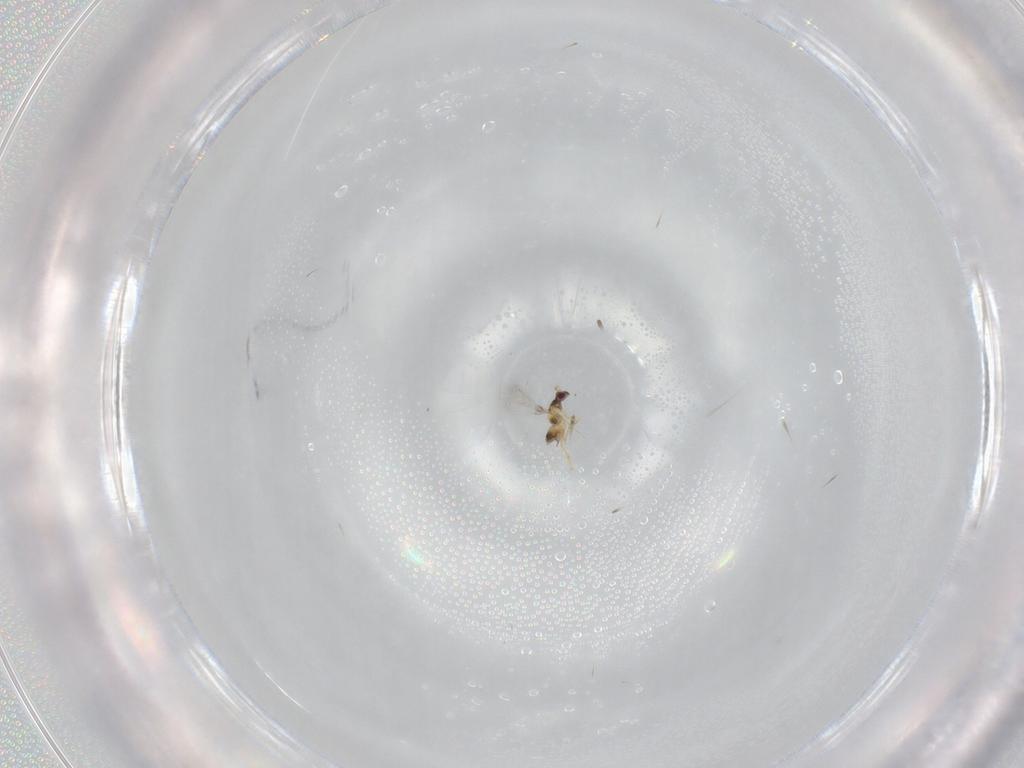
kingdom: Animalia
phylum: Arthropoda
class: Insecta
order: Hymenoptera
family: Mymaridae
